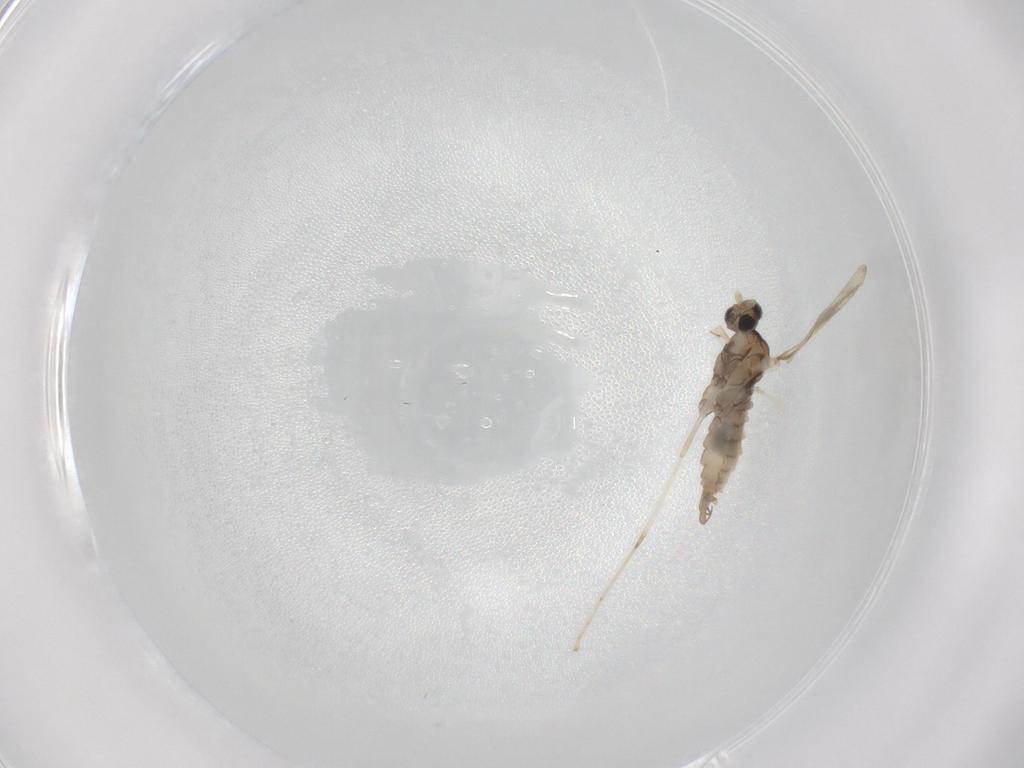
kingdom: Animalia
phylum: Arthropoda
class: Insecta
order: Diptera
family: Cecidomyiidae
